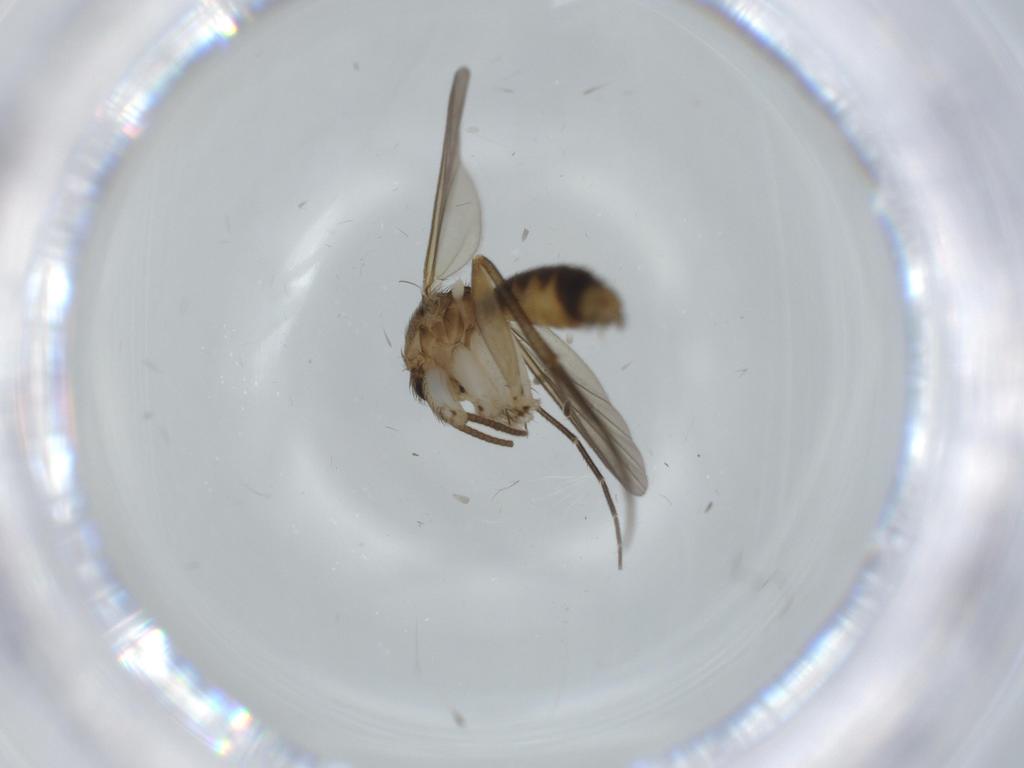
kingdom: Animalia
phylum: Arthropoda
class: Insecta
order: Diptera
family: Mycetophilidae
